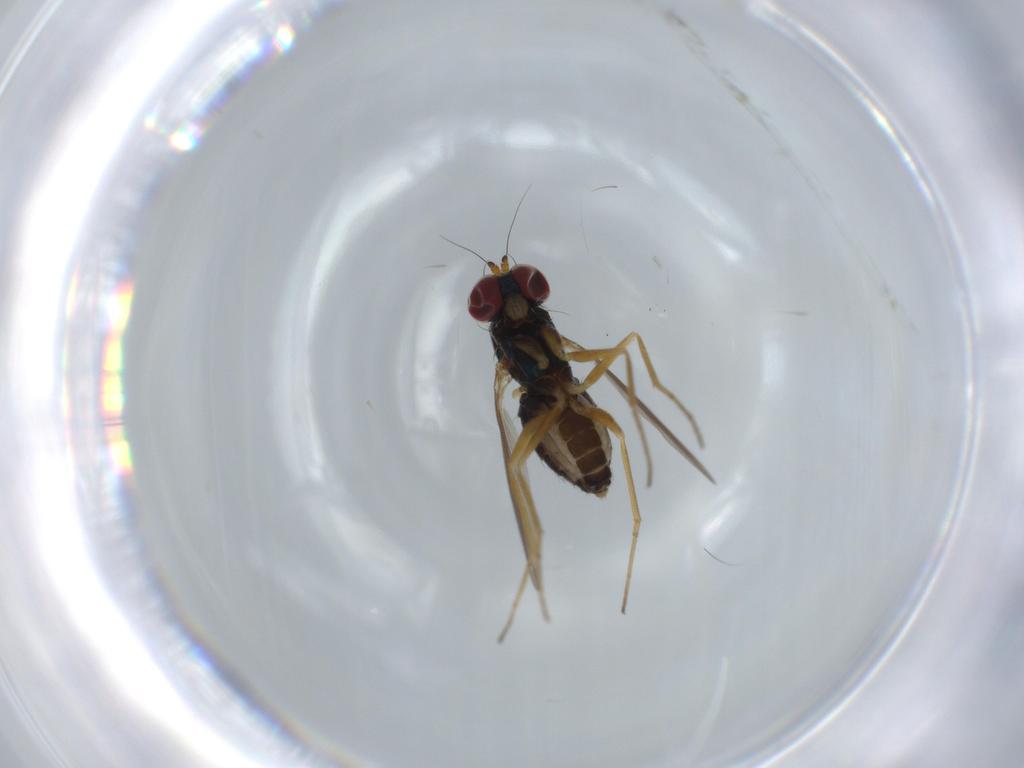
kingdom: Animalia
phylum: Arthropoda
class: Insecta
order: Diptera
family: Dolichopodidae
